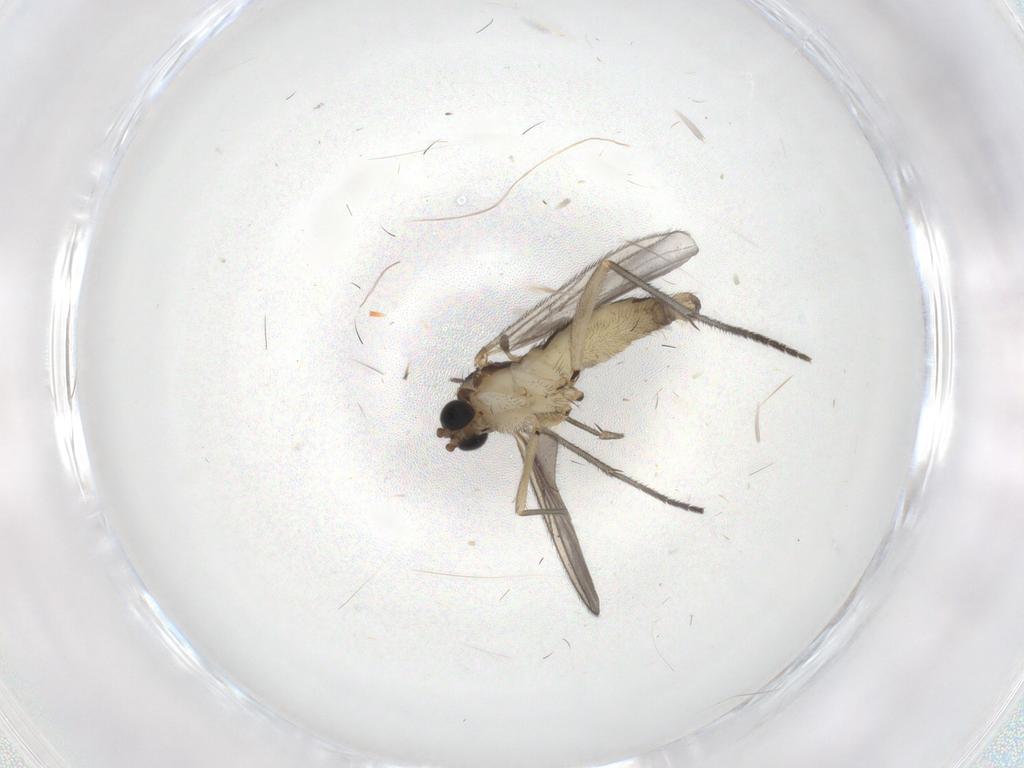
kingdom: Animalia
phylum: Arthropoda
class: Insecta
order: Diptera
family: Sciaridae
